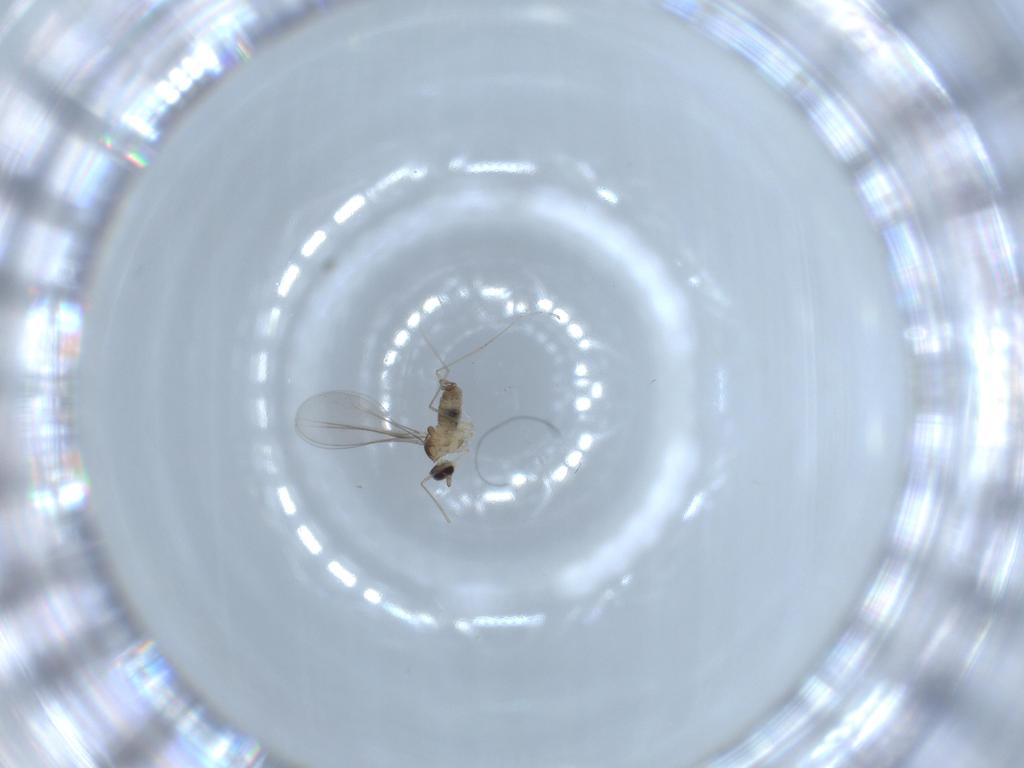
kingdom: Animalia
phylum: Arthropoda
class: Insecta
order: Diptera
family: Cecidomyiidae
